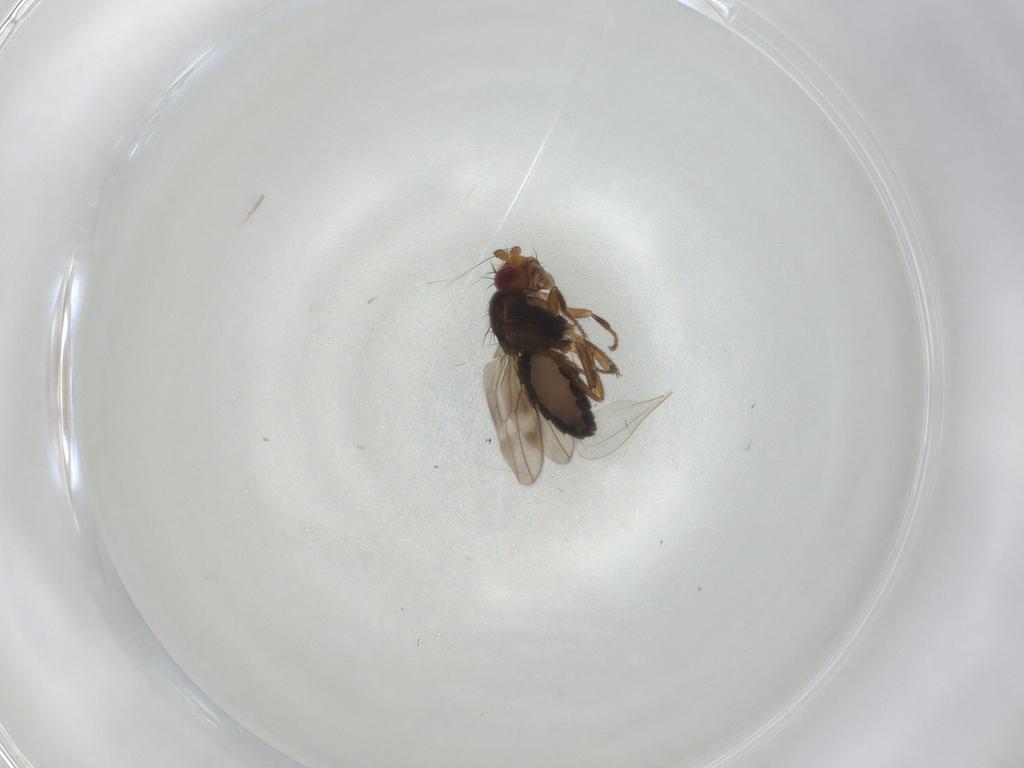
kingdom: Animalia
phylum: Arthropoda
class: Insecta
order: Diptera
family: Sphaeroceridae
